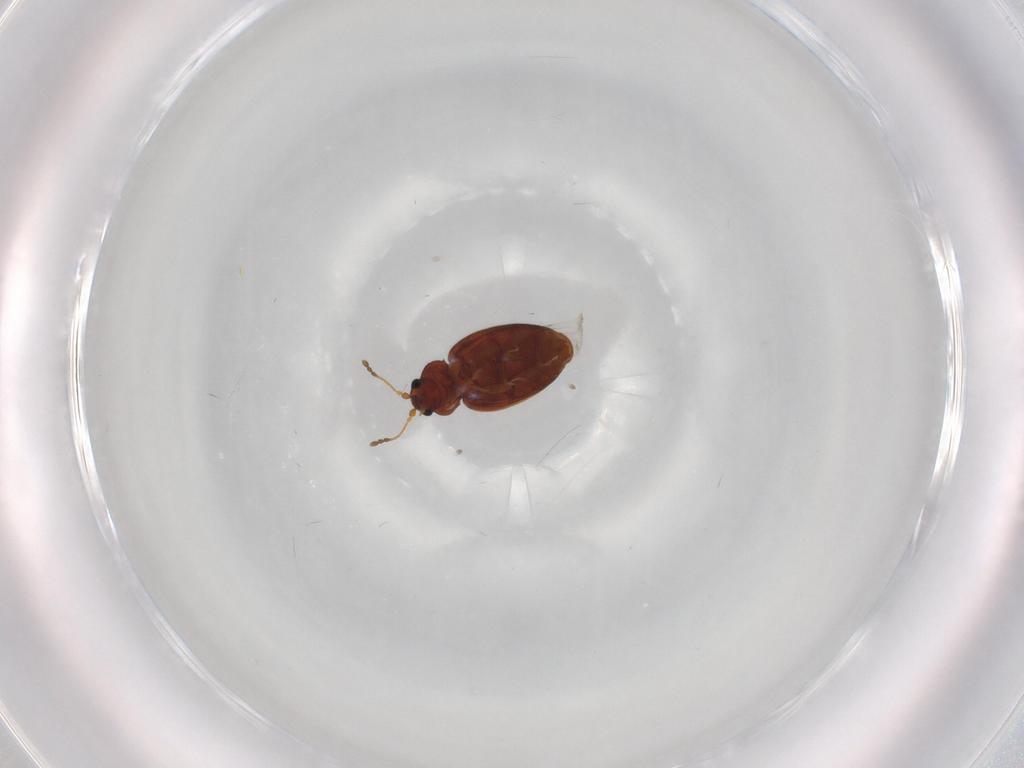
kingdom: Animalia
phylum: Arthropoda
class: Insecta
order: Coleoptera
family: Latridiidae
